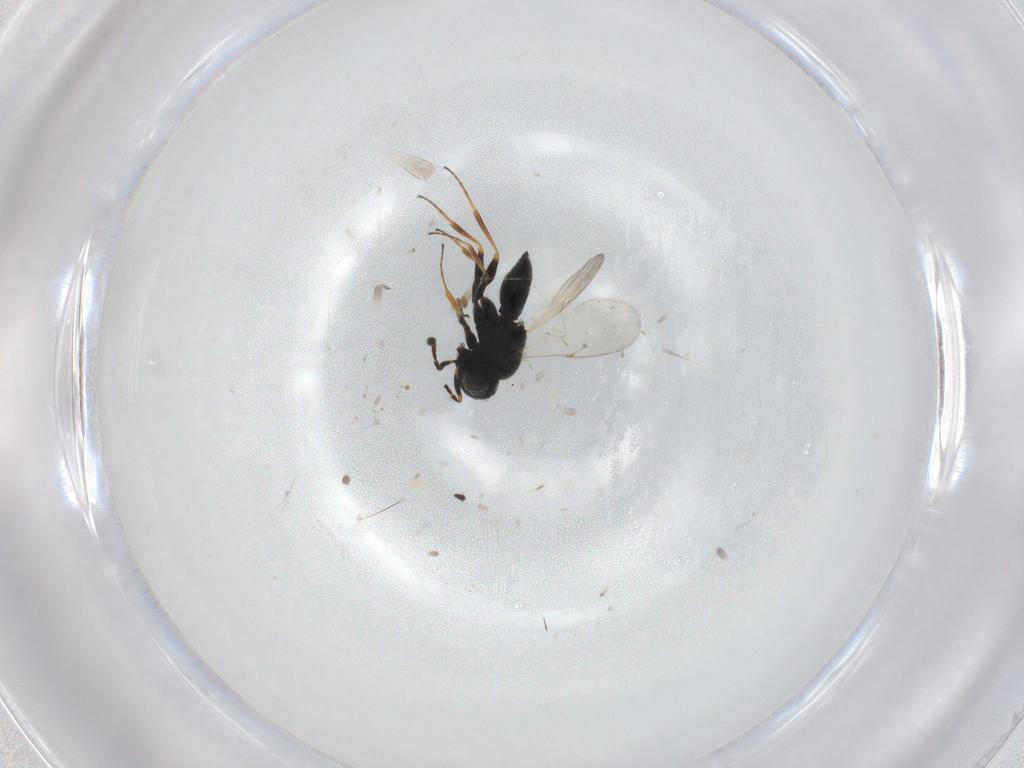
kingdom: Animalia
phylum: Arthropoda
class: Insecta
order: Hymenoptera
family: Scelionidae
